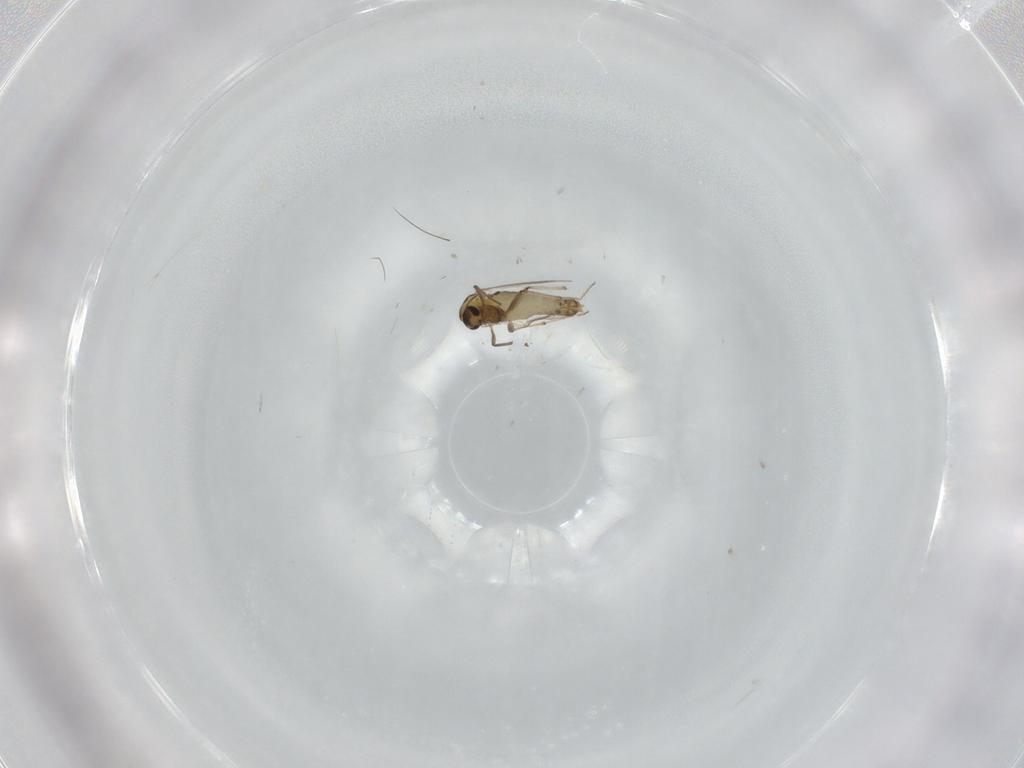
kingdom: Animalia
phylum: Arthropoda
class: Insecta
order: Diptera
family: Chironomidae
